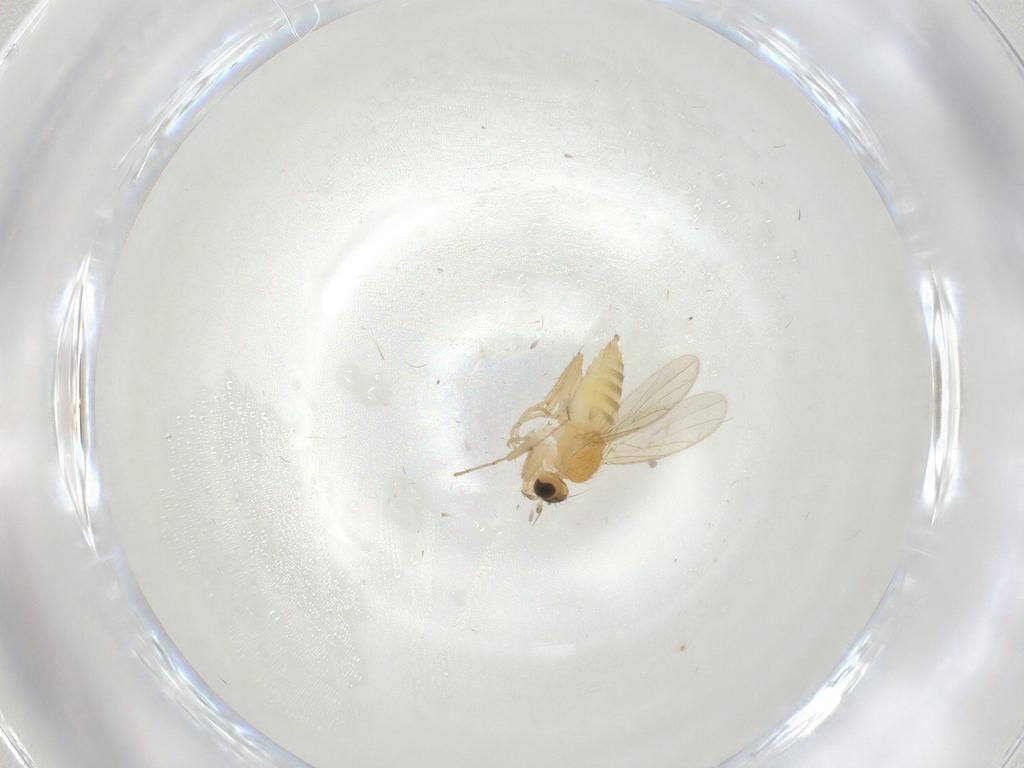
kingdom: Animalia
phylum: Arthropoda
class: Insecta
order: Diptera
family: Hybotidae
